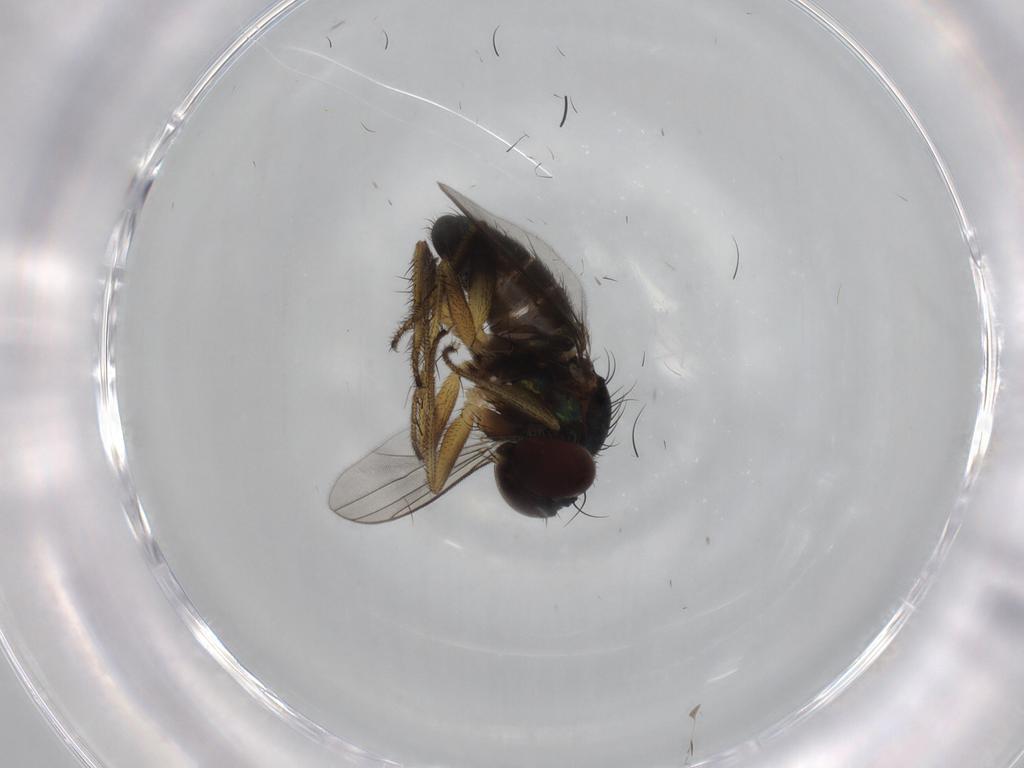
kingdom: Animalia
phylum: Arthropoda
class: Insecta
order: Diptera
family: Dolichopodidae
